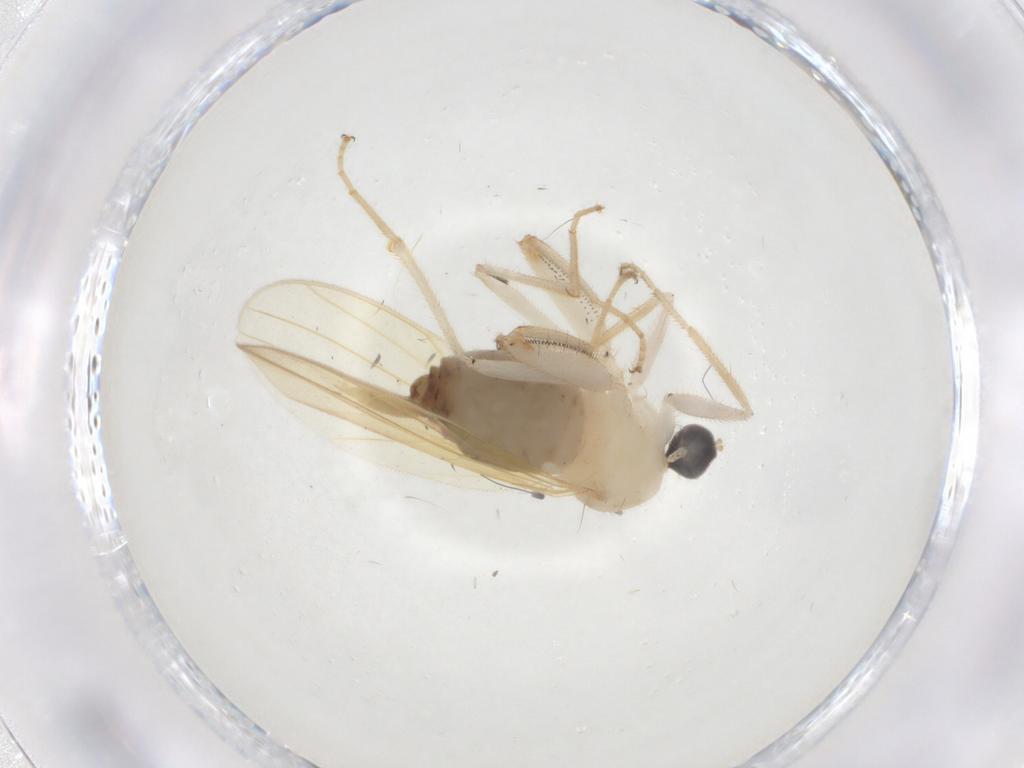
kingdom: Animalia
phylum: Arthropoda
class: Insecta
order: Diptera
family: Hybotidae
